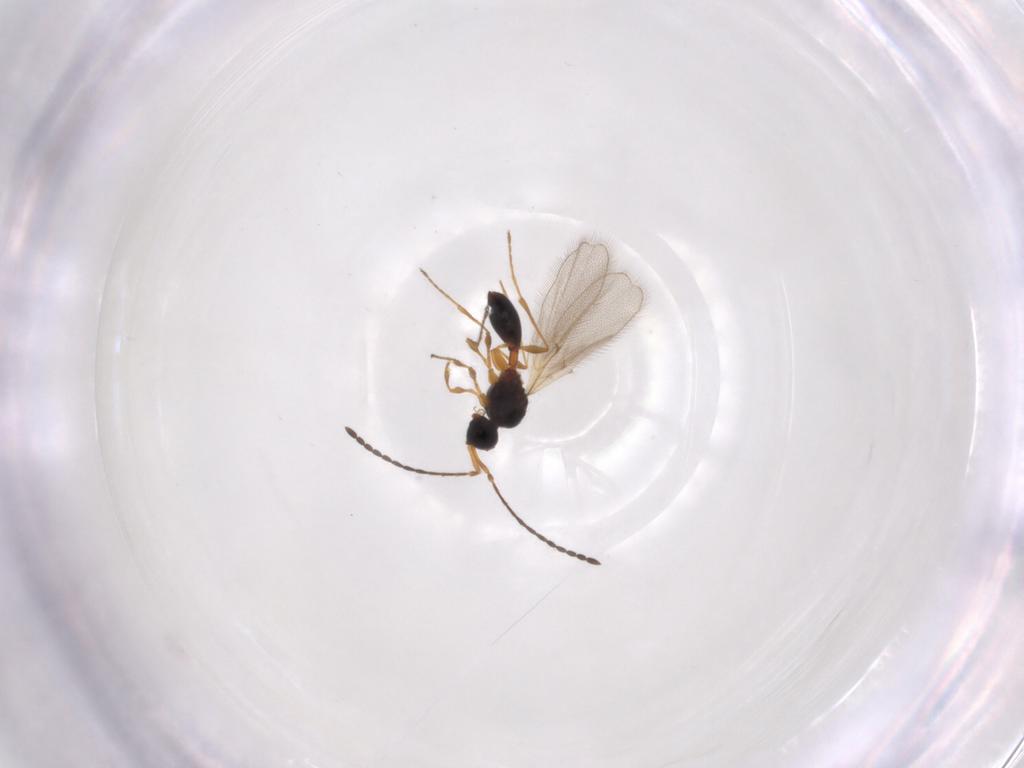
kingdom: Animalia
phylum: Arthropoda
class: Insecta
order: Hymenoptera
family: Diapriidae
